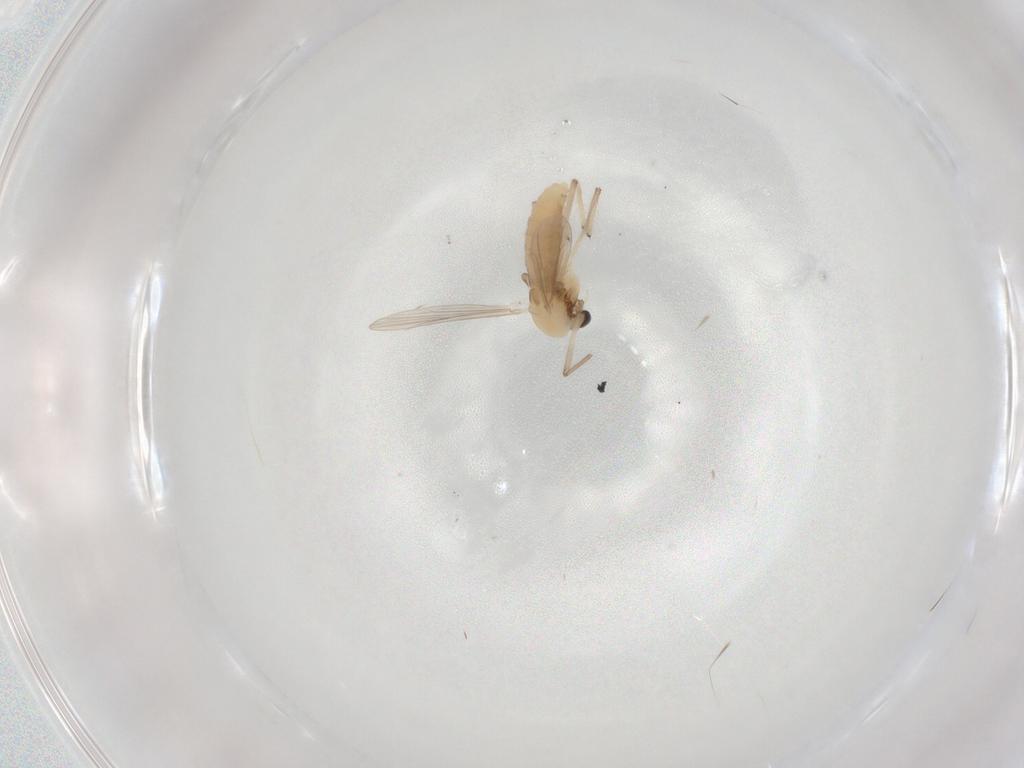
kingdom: Animalia
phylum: Arthropoda
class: Insecta
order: Diptera
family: Chironomidae
